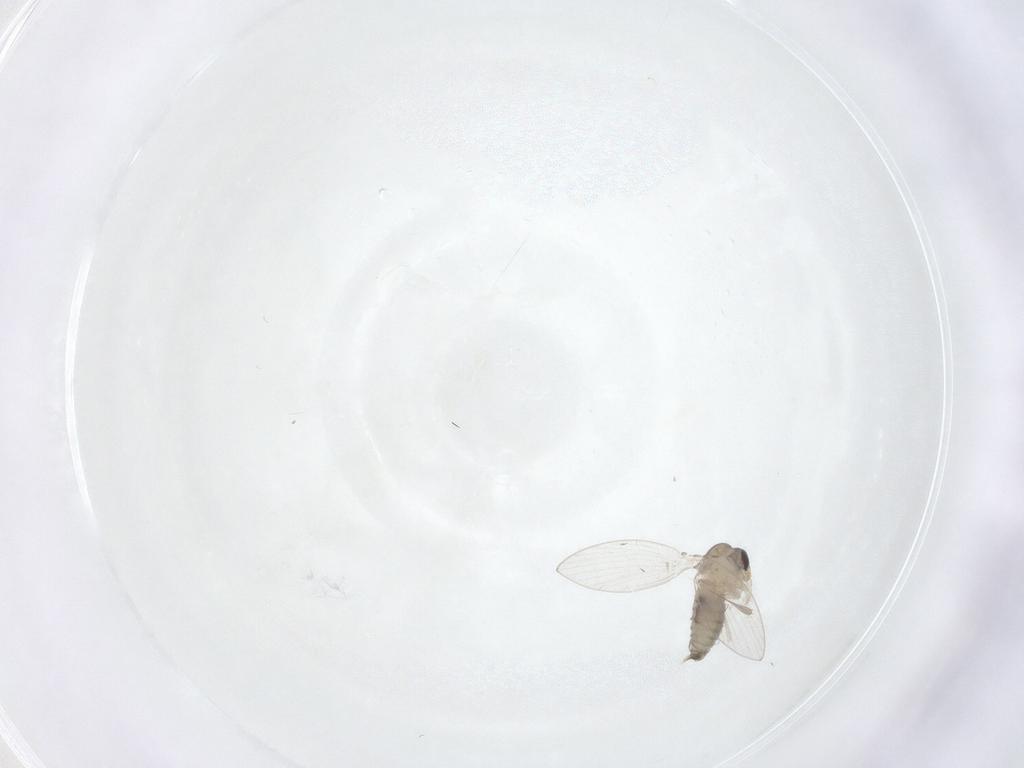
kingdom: Animalia
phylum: Arthropoda
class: Insecta
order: Diptera
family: Psychodidae
